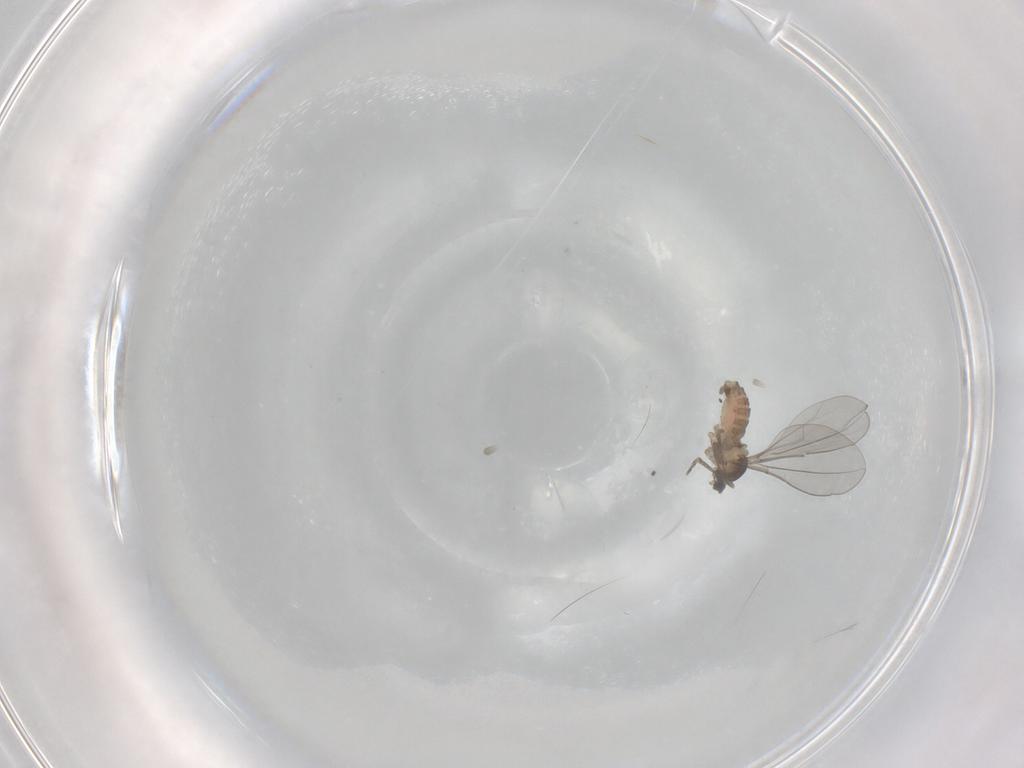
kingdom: Animalia
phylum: Arthropoda
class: Insecta
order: Diptera
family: Cecidomyiidae
